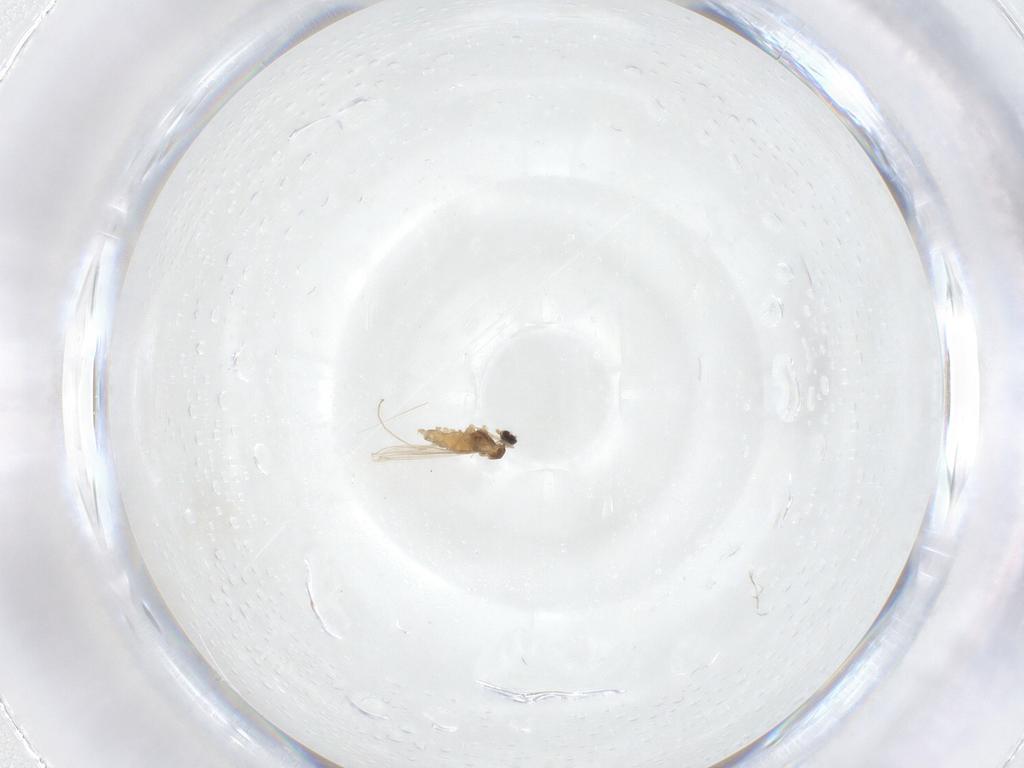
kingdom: Animalia
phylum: Arthropoda
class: Insecta
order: Diptera
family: Cecidomyiidae
